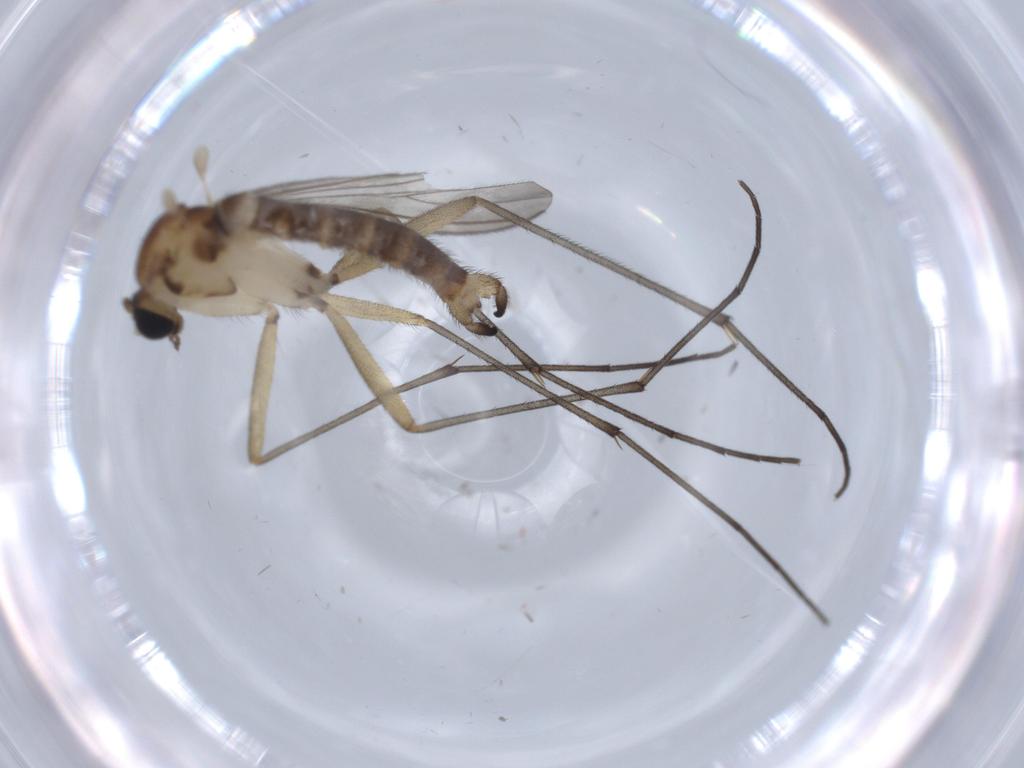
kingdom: Animalia
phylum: Arthropoda
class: Insecta
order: Diptera
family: Sciaridae
